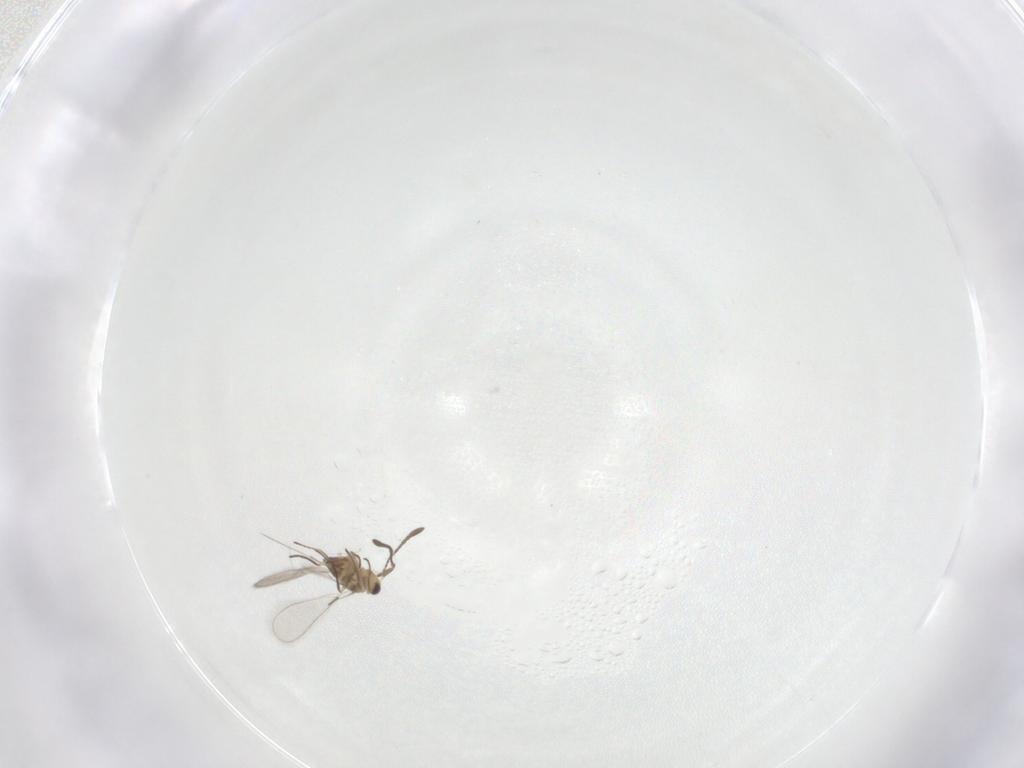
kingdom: Animalia
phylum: Arthropoda
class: Insecta
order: Hymenoptera
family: Mymaridae
